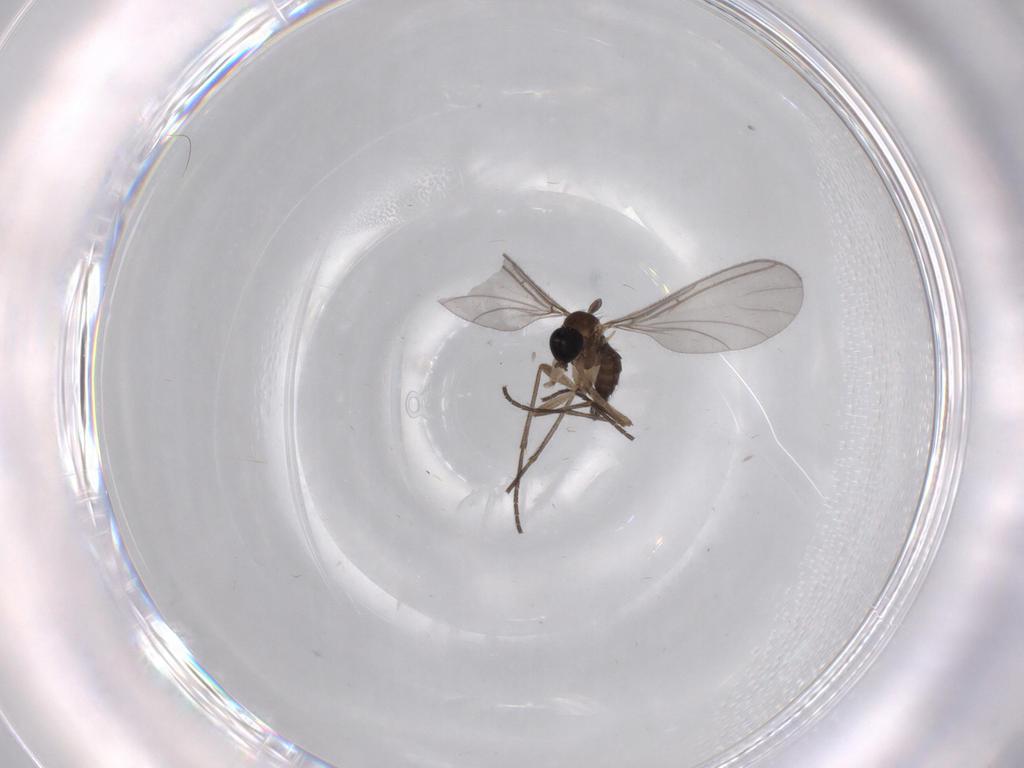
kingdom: Animalia
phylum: Arthropoda
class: Insecta
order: Diptera
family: Sciaridae
